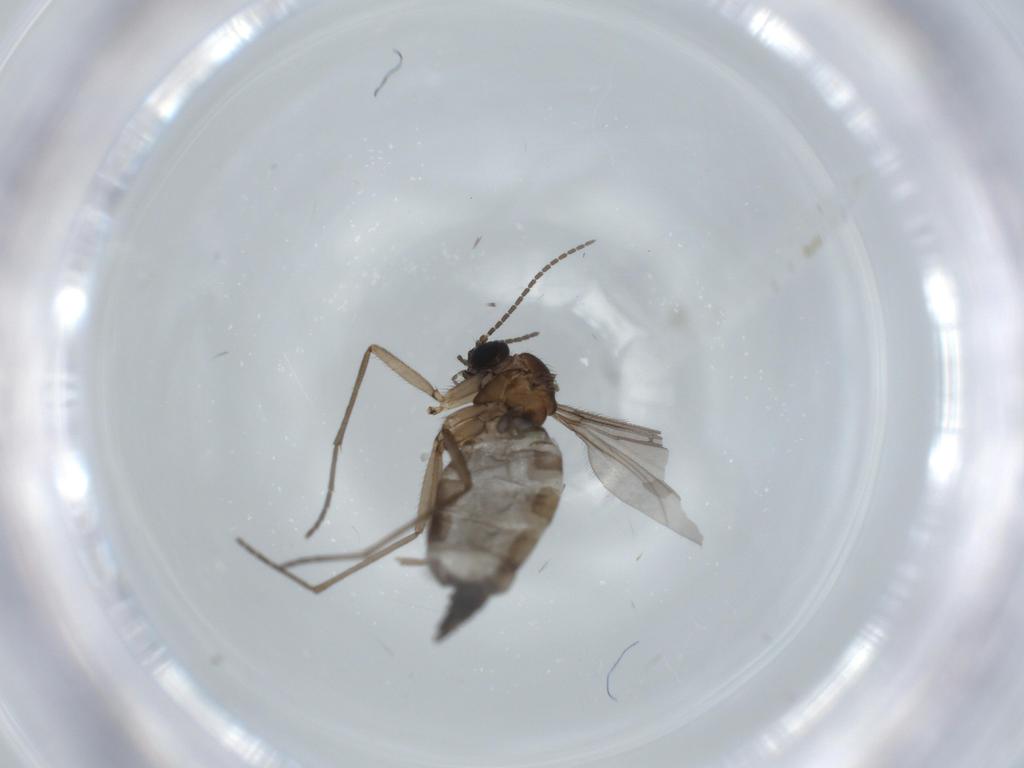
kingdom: Animalia
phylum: Arthropoda
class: Insecta
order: Diptera
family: Sciaridae
